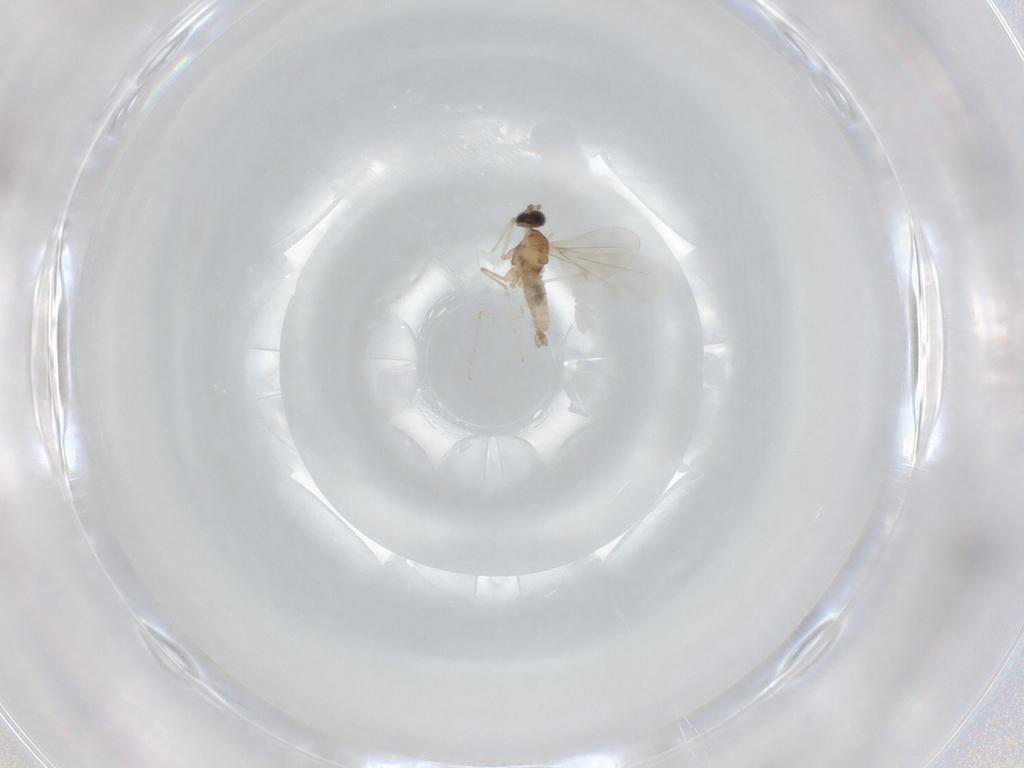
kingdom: Animalia
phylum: Arthropoda
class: Insecta
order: Diptera
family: Cecidomyiidae
